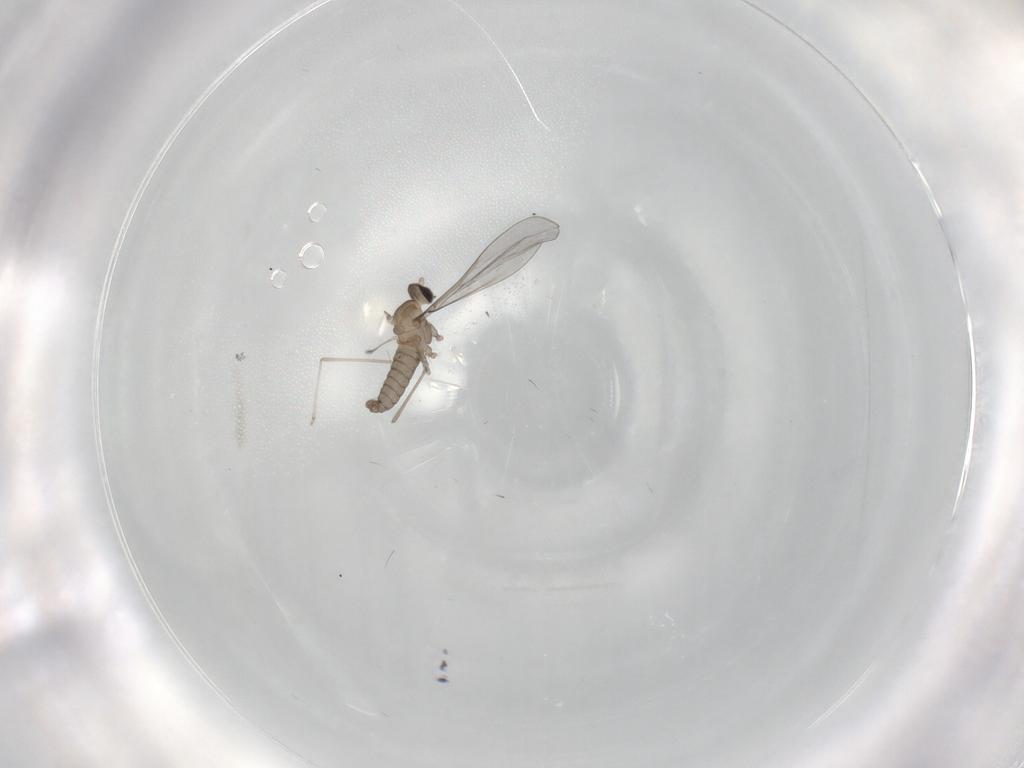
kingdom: Animalia
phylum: Arthropoda
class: Insecta
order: Diptera
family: Cecidomyiidae
